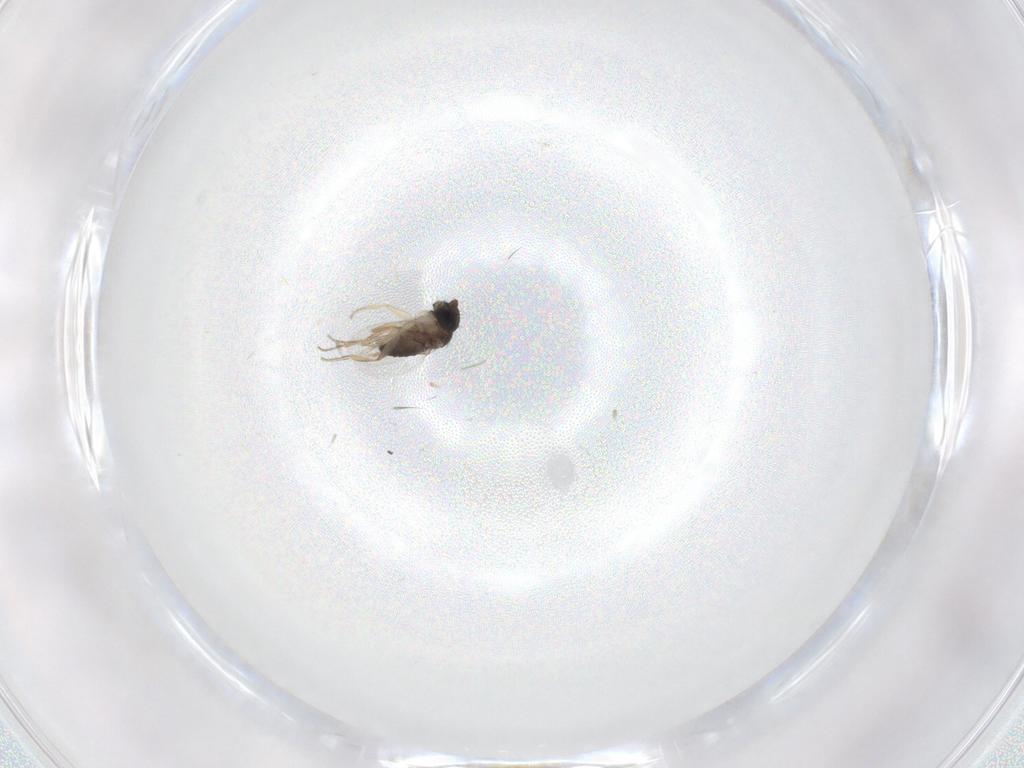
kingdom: Animalia
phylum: Arthropoda
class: Insecta
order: Diptera
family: Phoridae
